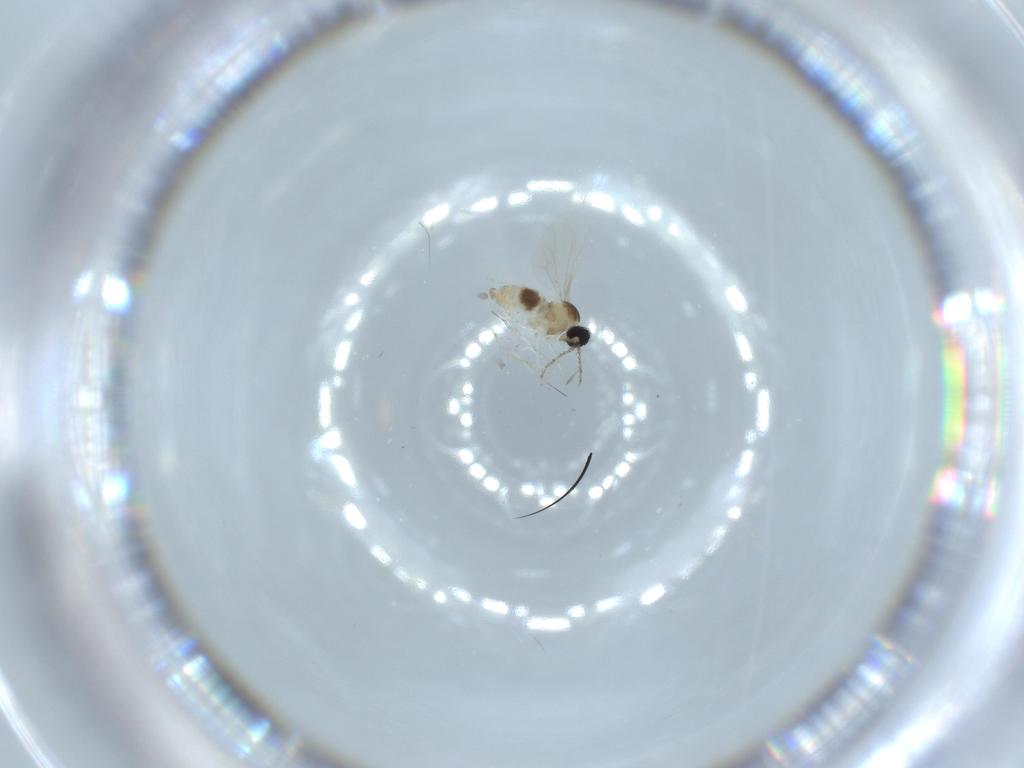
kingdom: Animalia
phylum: Arthropoda
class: Insecta
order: Diptera
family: Cecidomyiidae
